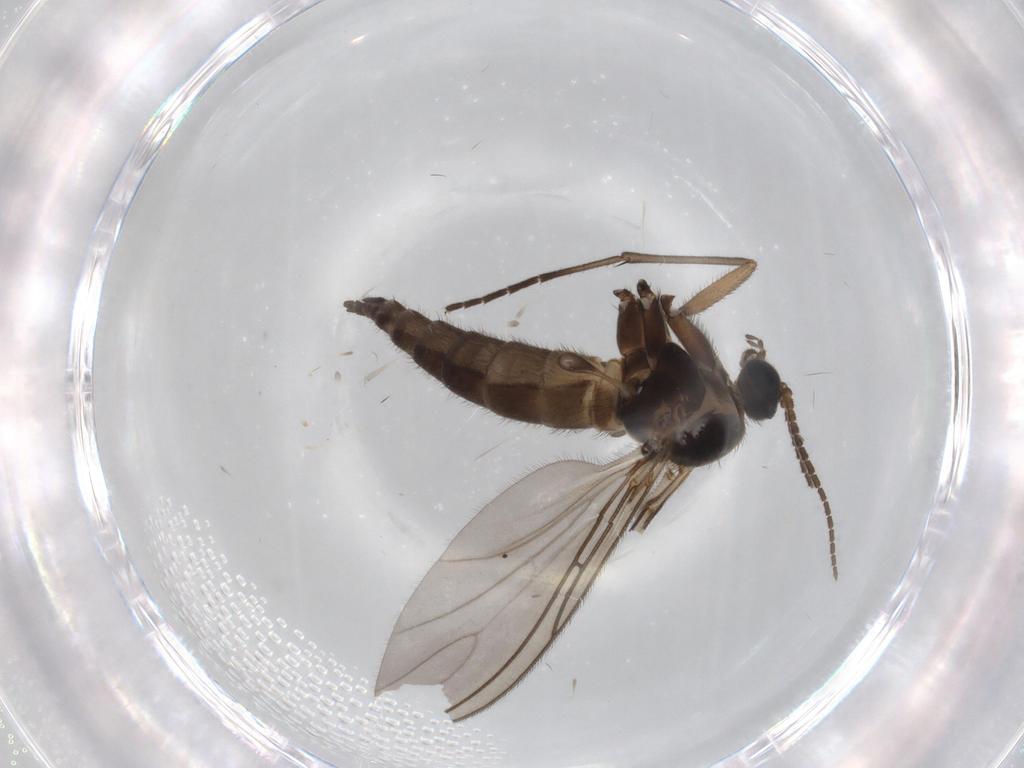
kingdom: Animalia
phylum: Arthropoda
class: Insecta
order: Diptera
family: Sciaridae
